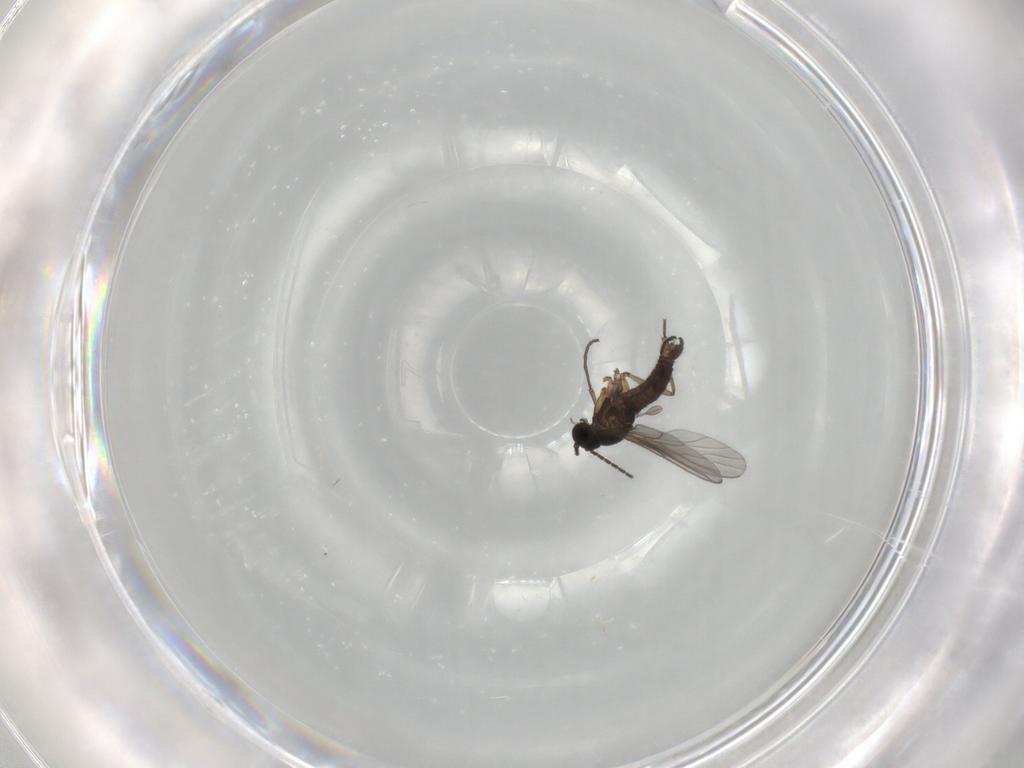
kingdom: Animalia
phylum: Arthropoda
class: Insecta
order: Diptera
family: Sciaridae
